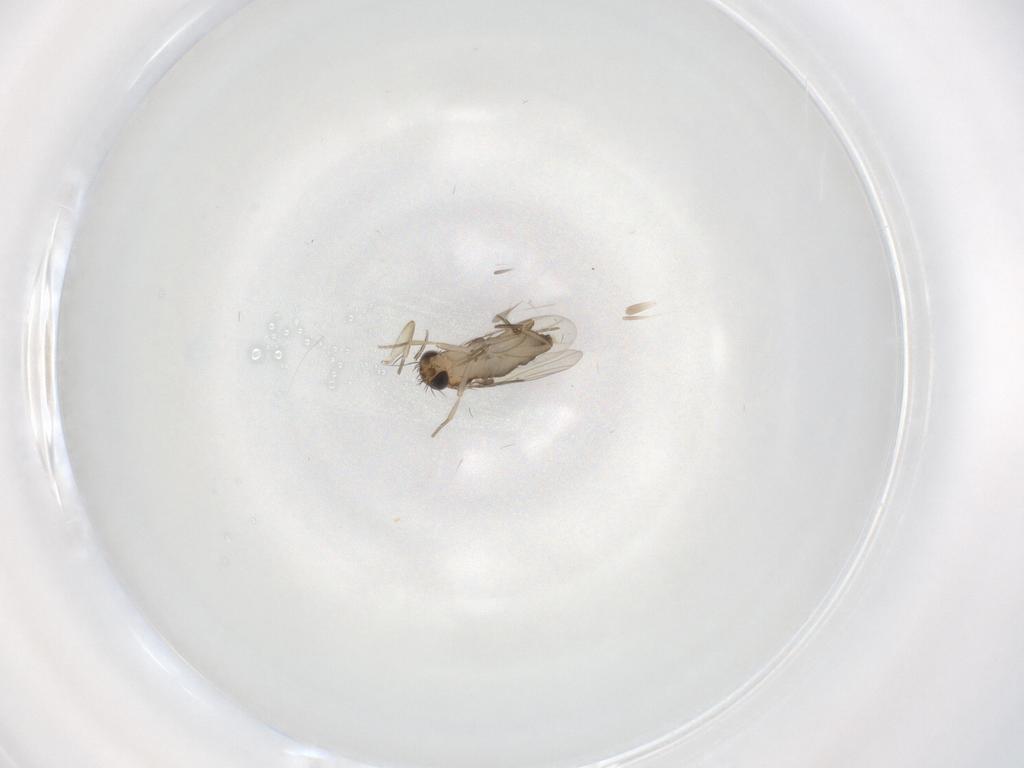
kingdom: Animalia
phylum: Arthropoda
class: Insecta
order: Diptera
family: Phoridae
